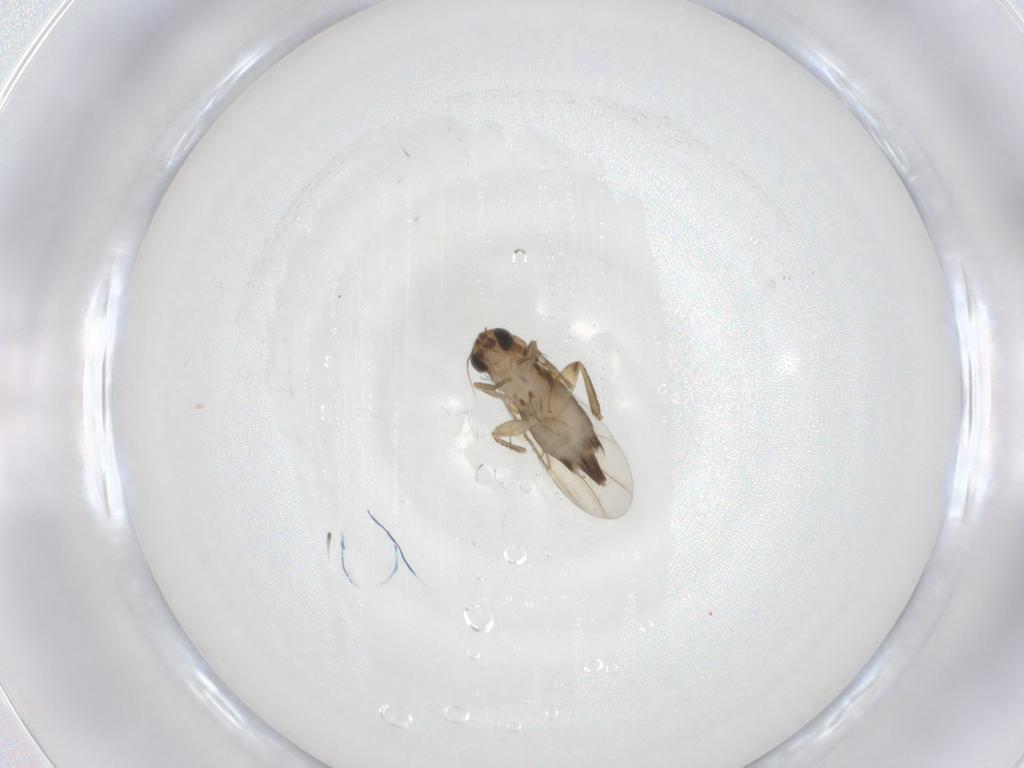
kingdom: Animalia
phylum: Arthropoda
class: Insecta
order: Diptera
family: Phoridae
